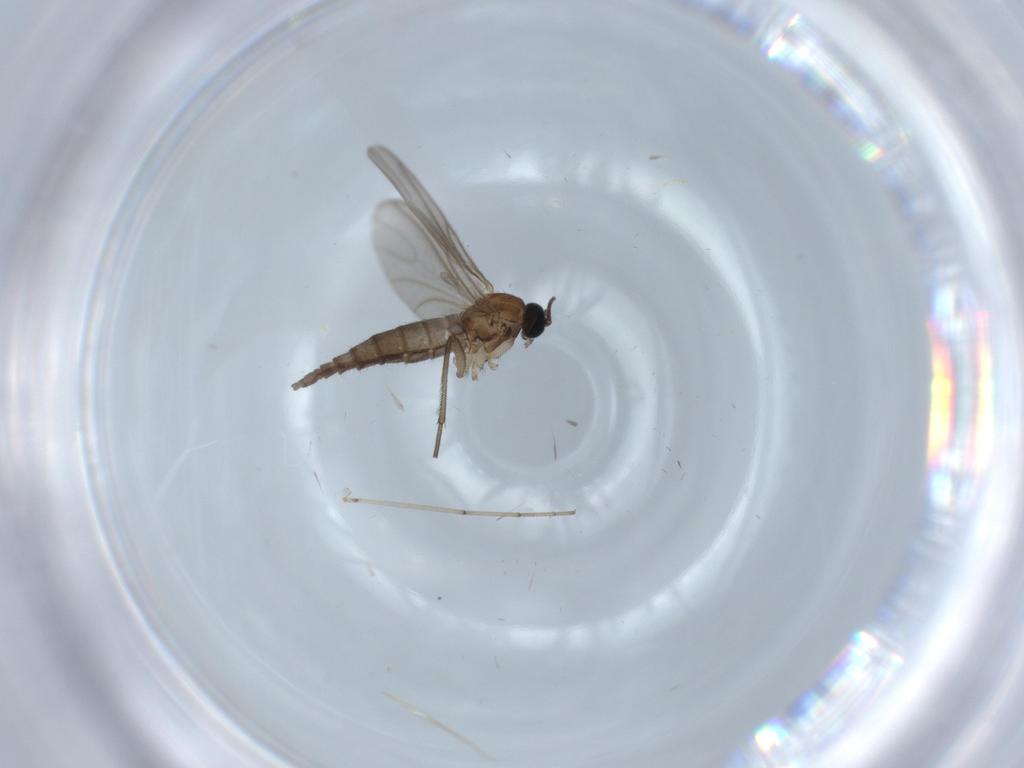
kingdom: Animalia
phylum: Arthropoda
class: Insecta
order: Diptera
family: Sciaridae
